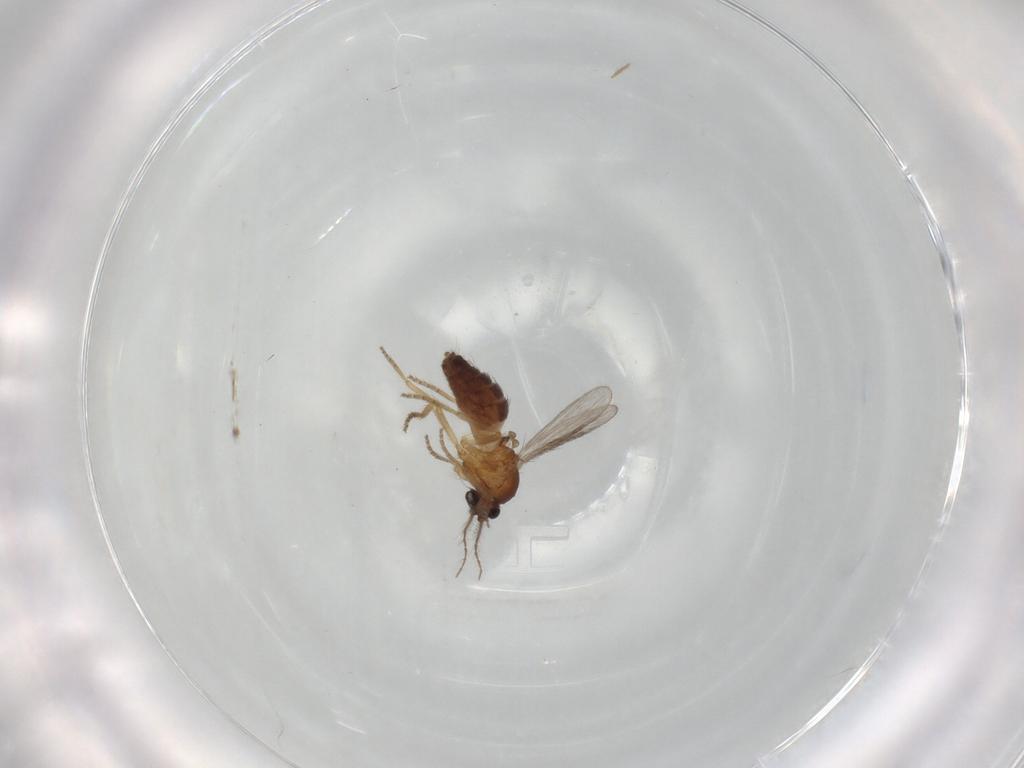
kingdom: Animalia
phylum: Arthropoda
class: Insecta
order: Diptera
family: Ceratopogonidae
